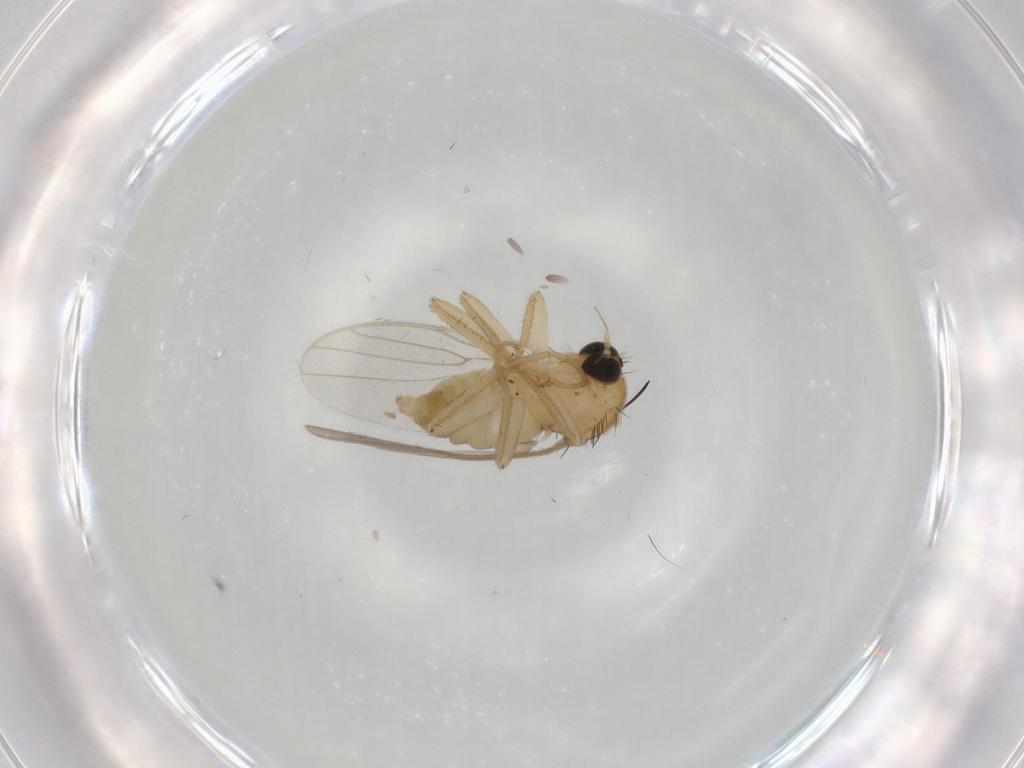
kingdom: Animalia
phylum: Arthropoda
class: Insecta
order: Diptera
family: Hybotidae
